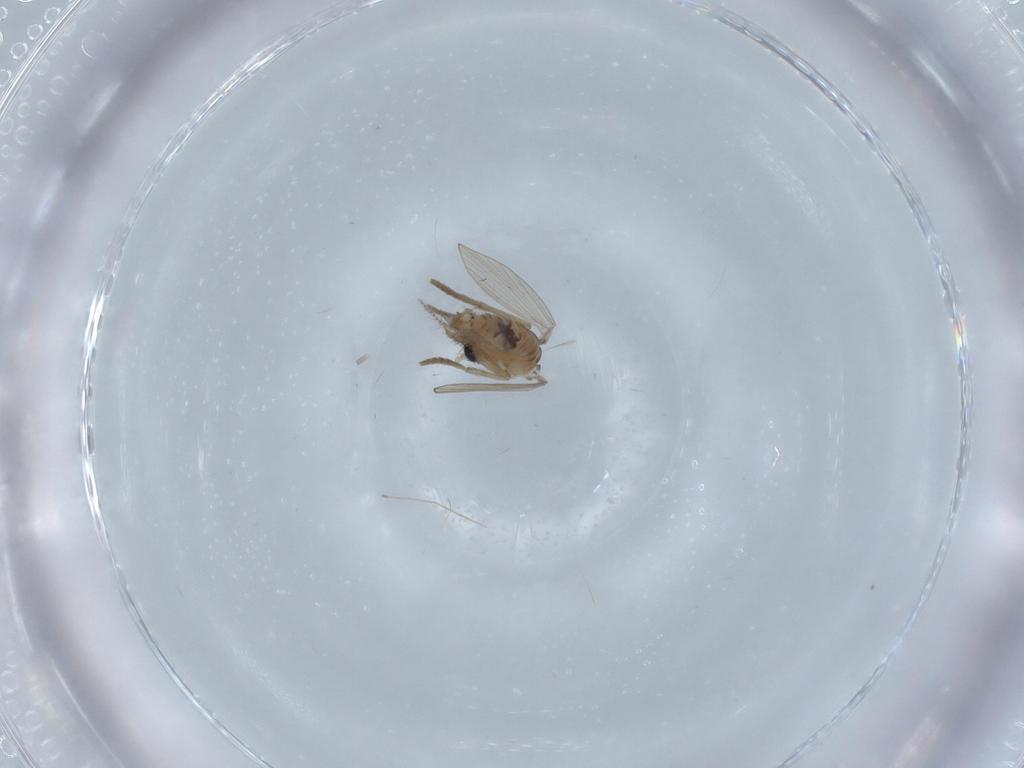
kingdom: Animalia
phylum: Arthropoda
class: Insecta
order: Diptera
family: Psychodidae
